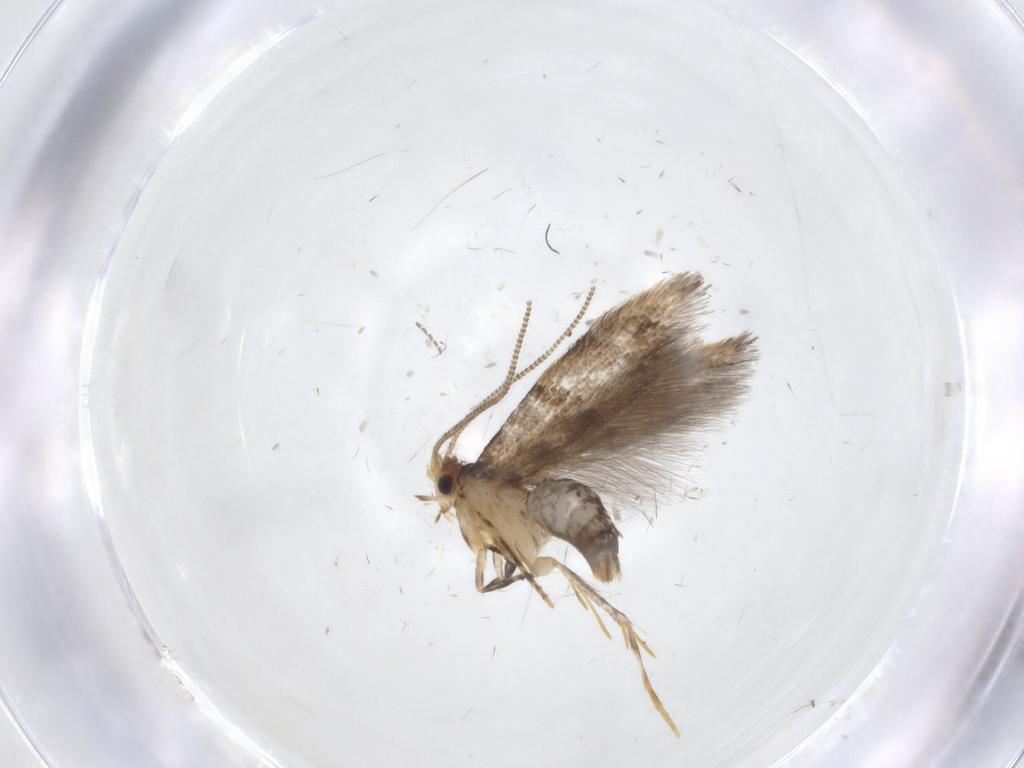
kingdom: Animalia
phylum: Arthropoda
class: Insecta
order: Lepidoptera
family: Tineidae
